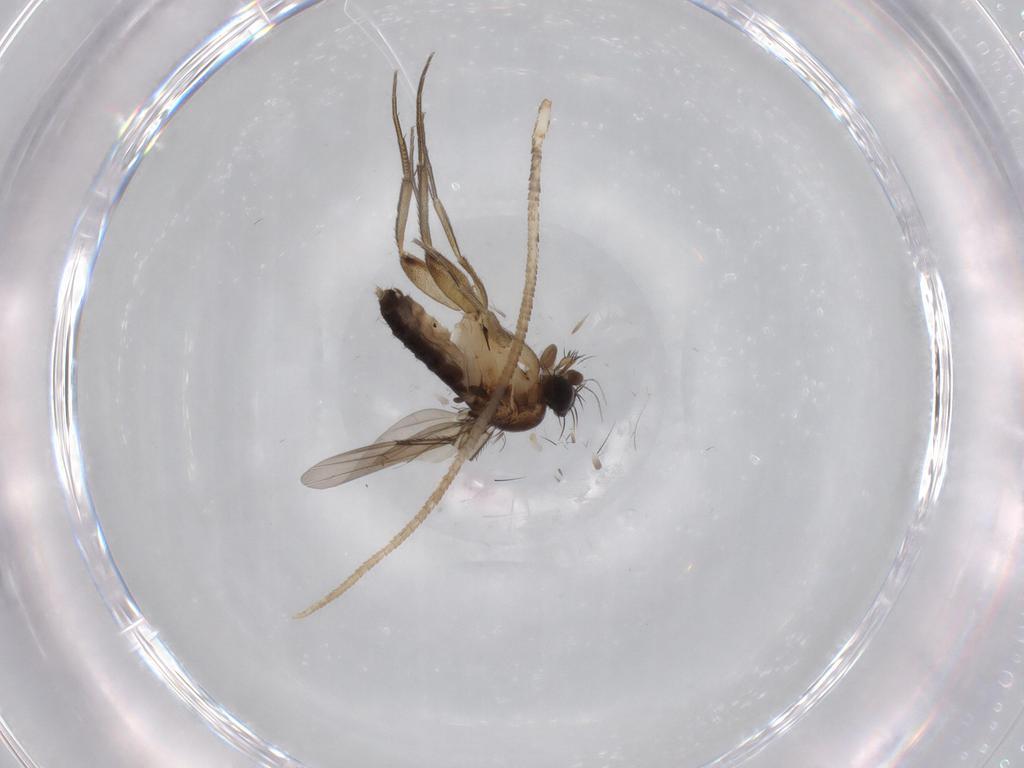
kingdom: Animalia
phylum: Arthropoda
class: Insecta
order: Diptera
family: Phoridae
